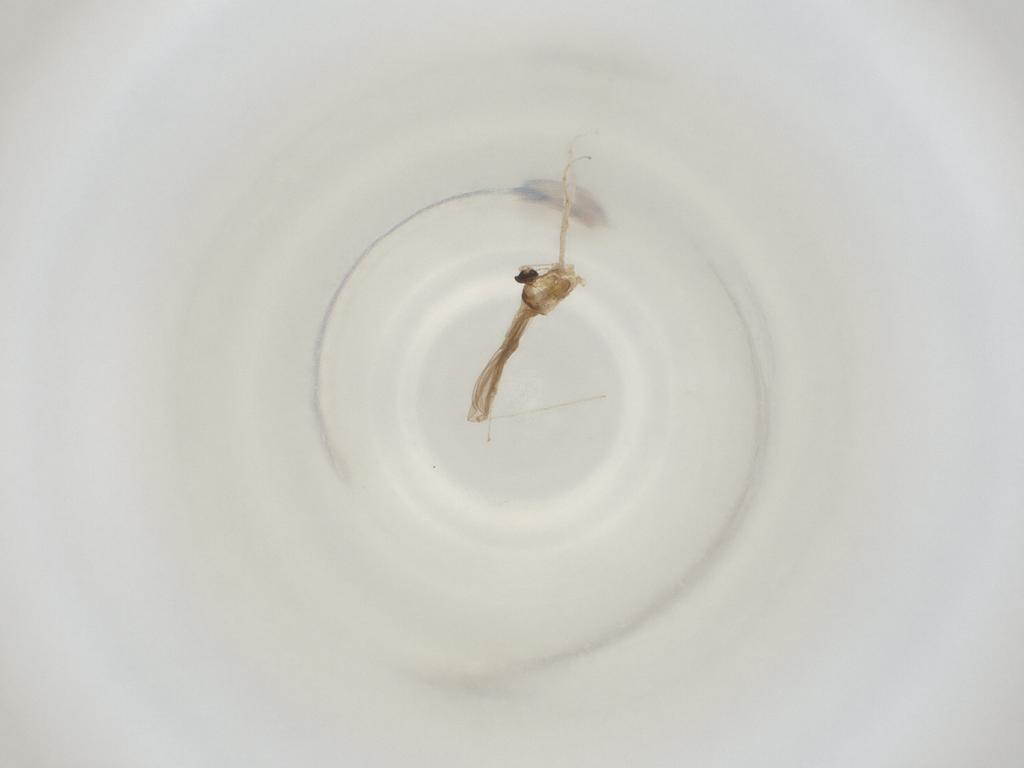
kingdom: Animalia
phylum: Arthropoda
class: Insecta
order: Diptera
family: Cecidomyiidae
